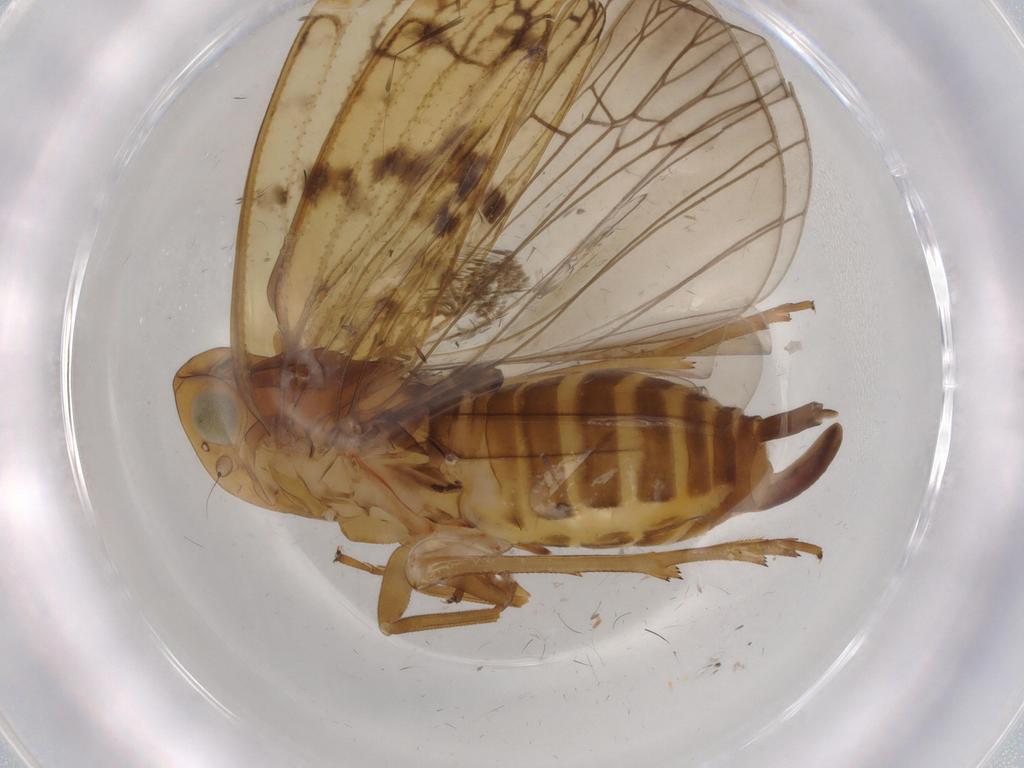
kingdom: Animalia
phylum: Arthropoda
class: Insecta
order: Hemiptera
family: Cicadellidae
